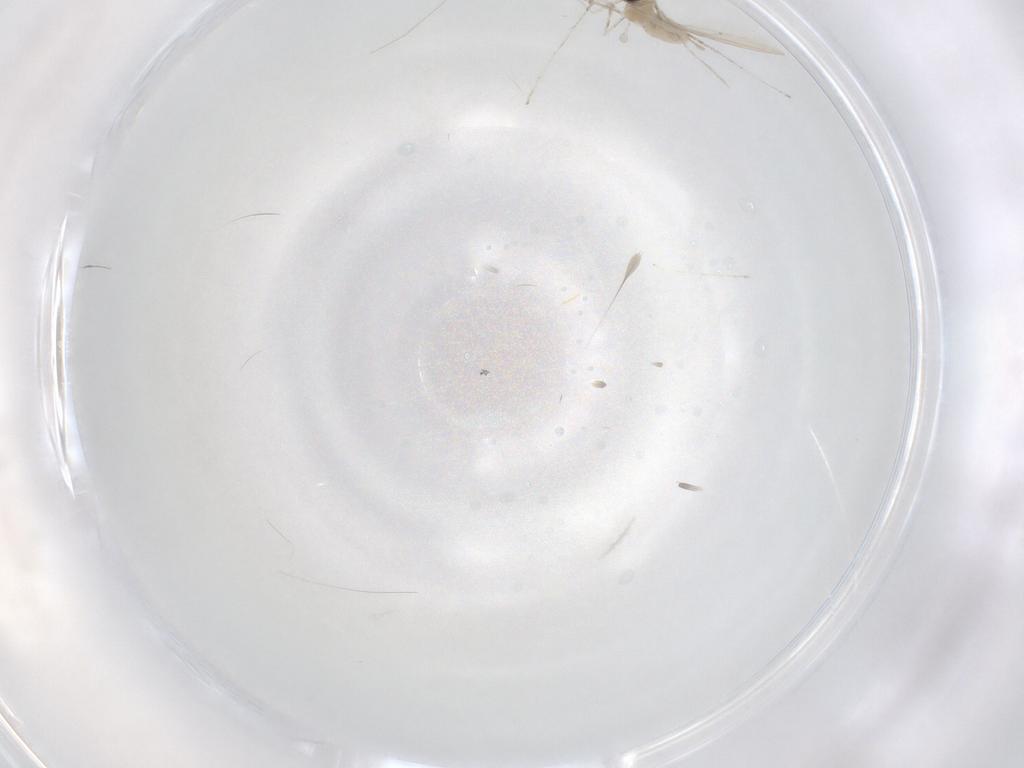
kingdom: Animalia
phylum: Arthropoda
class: Insecta
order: Diptera
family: Cecidomyiidae
